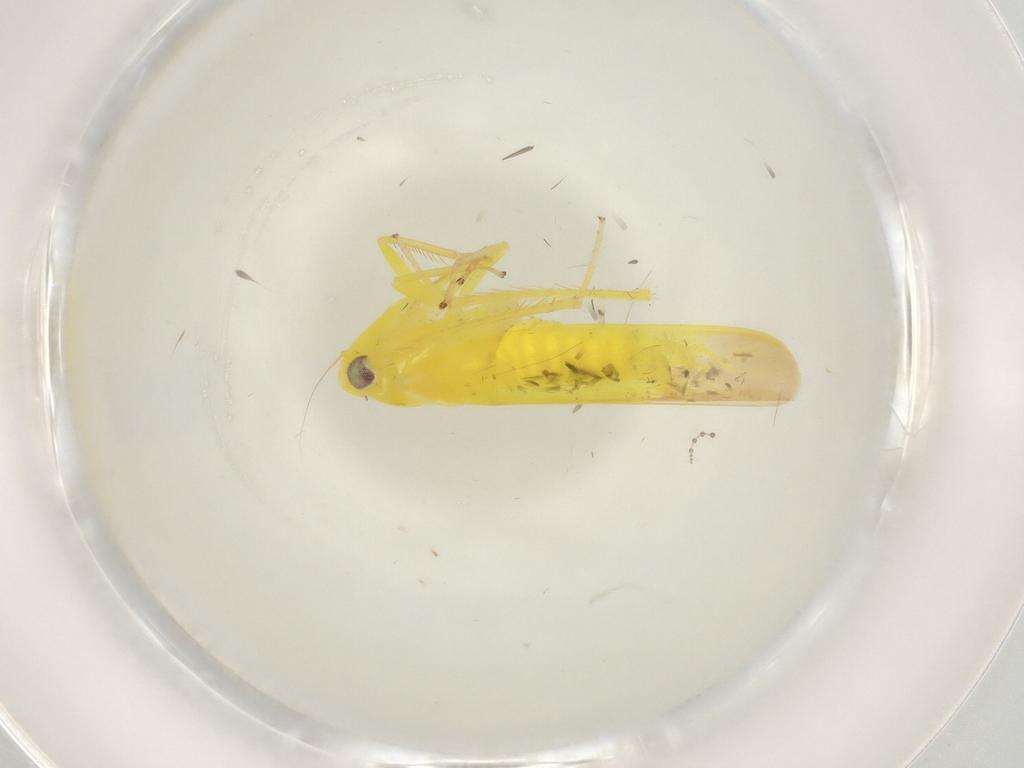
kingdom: Animalia
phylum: Arthropoda
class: Insecta
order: Hemiptera
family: Cicadellidae
